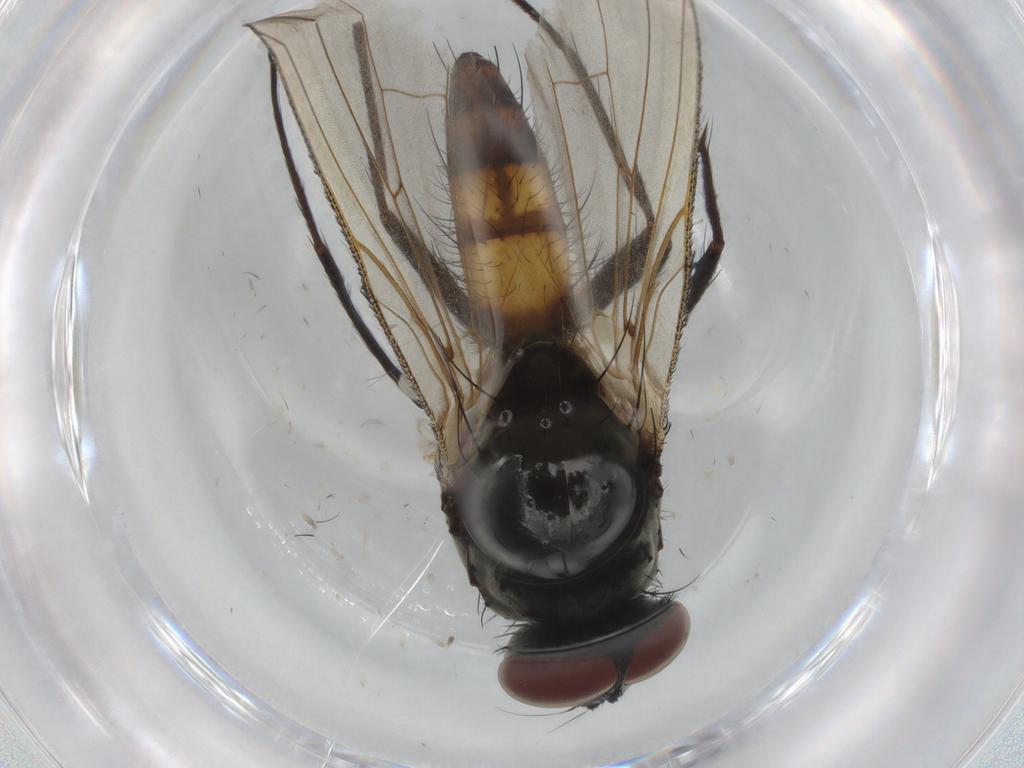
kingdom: Animalia
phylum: Arthropoda
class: Insecta
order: Diptera
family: Cecidomyiidae
